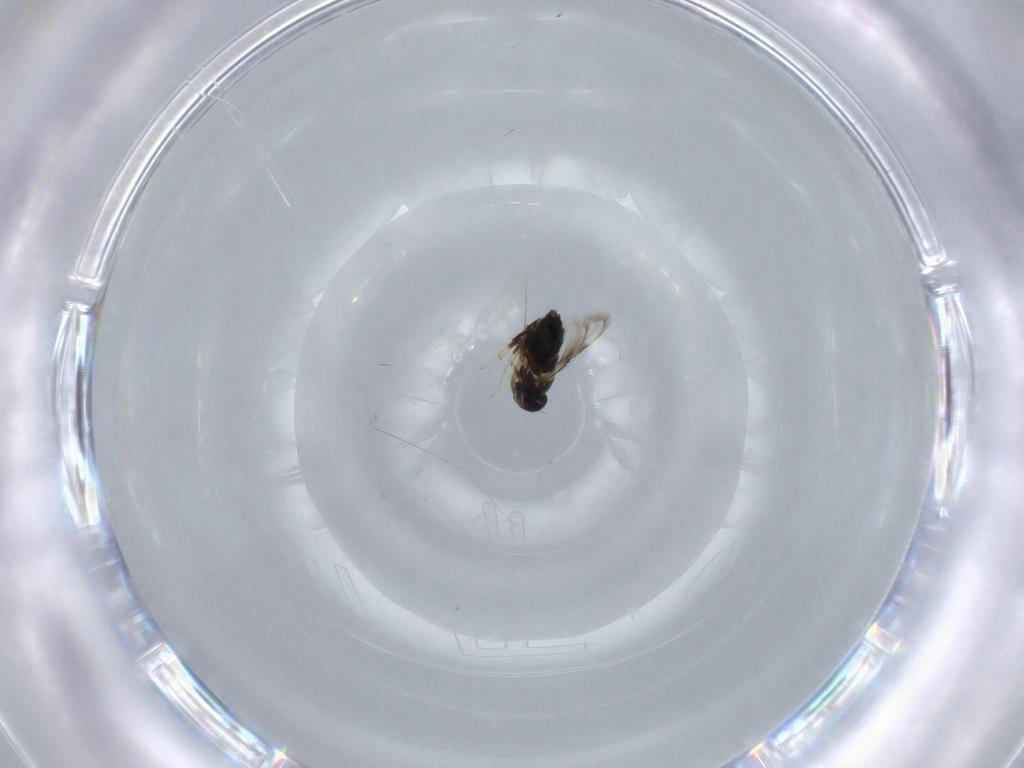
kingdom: Animalia
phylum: Arthropoda
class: Insecta
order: Hymenoptera
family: Signiphoridae
